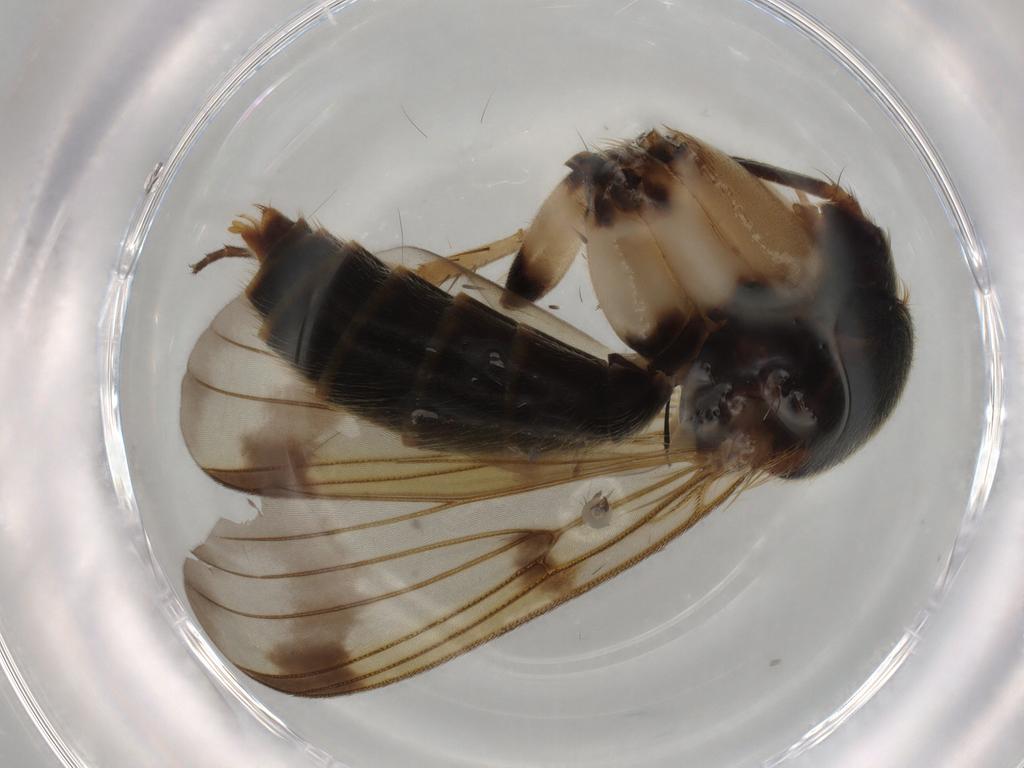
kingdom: Animalia
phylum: Arthropoda
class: Insecta
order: Diptera
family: Mycetophilidae
